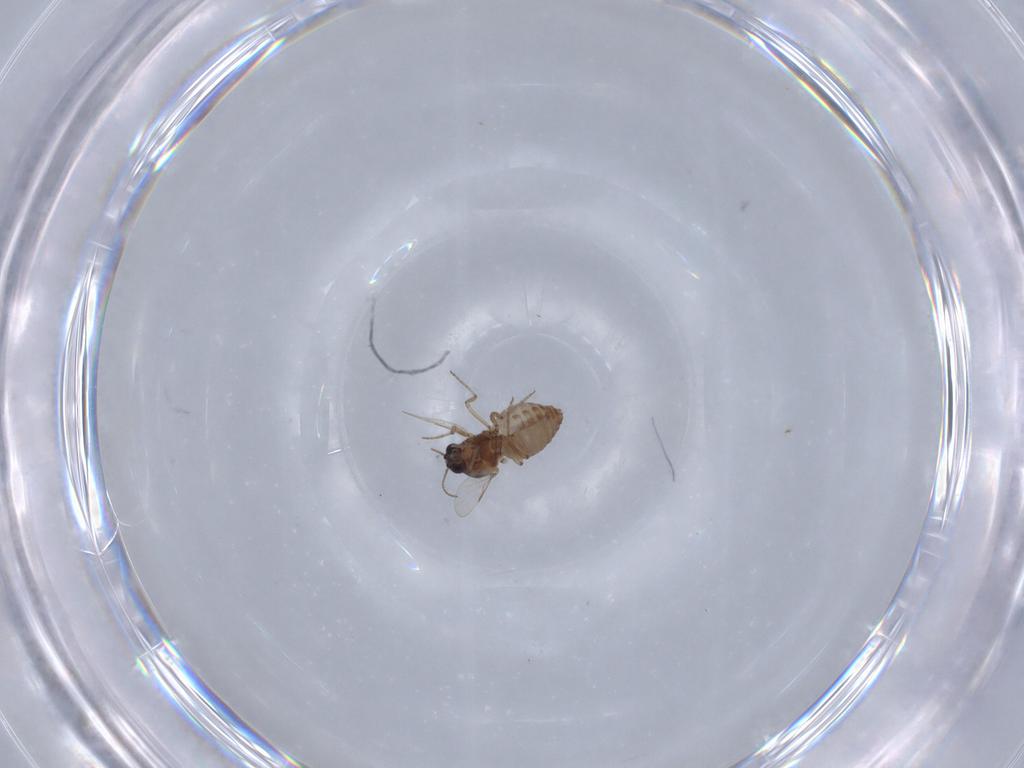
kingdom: Animalia
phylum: Arthropoda
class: Insecta
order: Diptera
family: Ceratopogonidae
